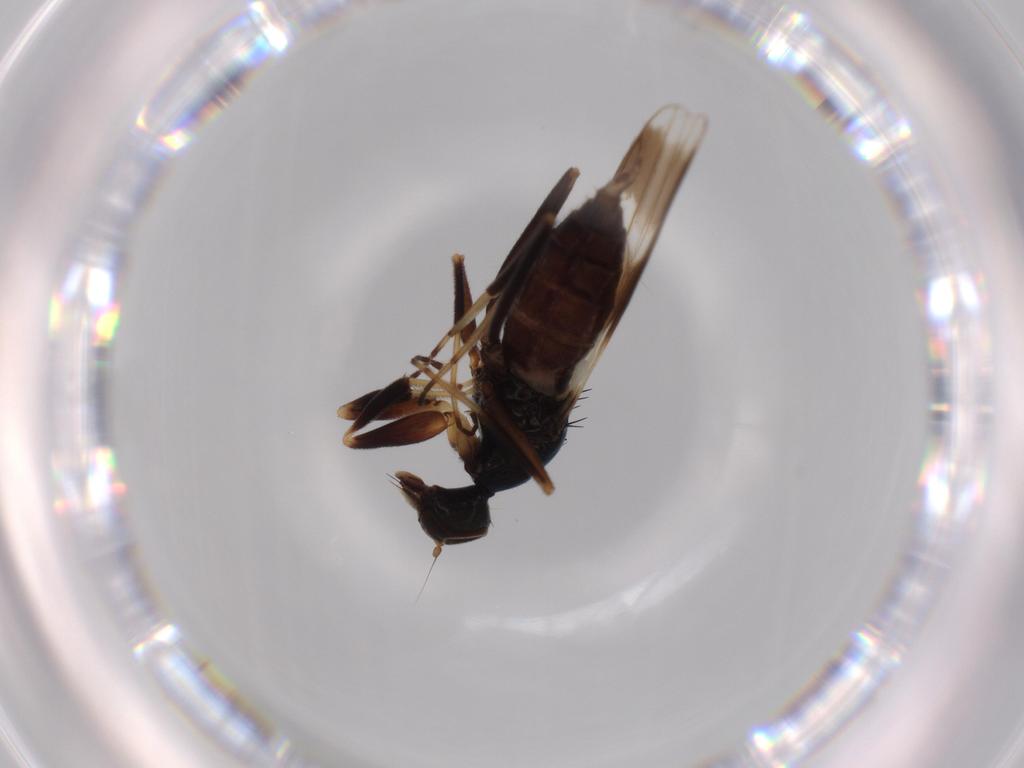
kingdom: Animalia
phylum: Arthropoda
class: Insecta
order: Diptera
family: Hybotidae
